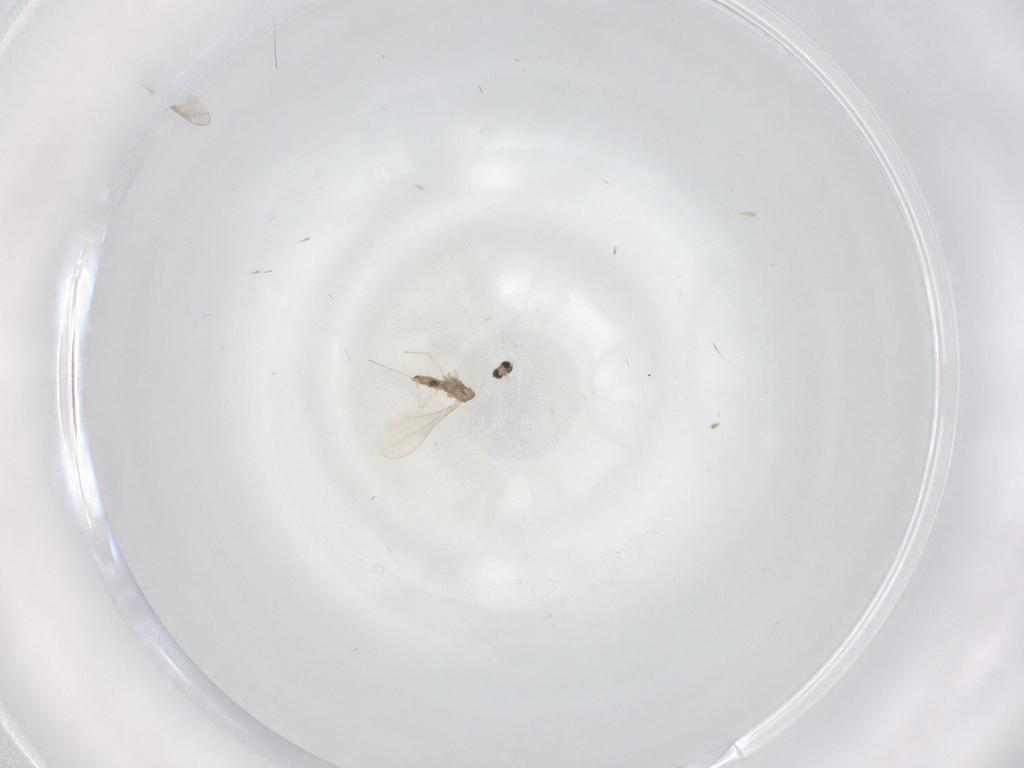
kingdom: Animalia
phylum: Arthropoda
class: Insecta
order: Diptera
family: Cecidomyiidae
